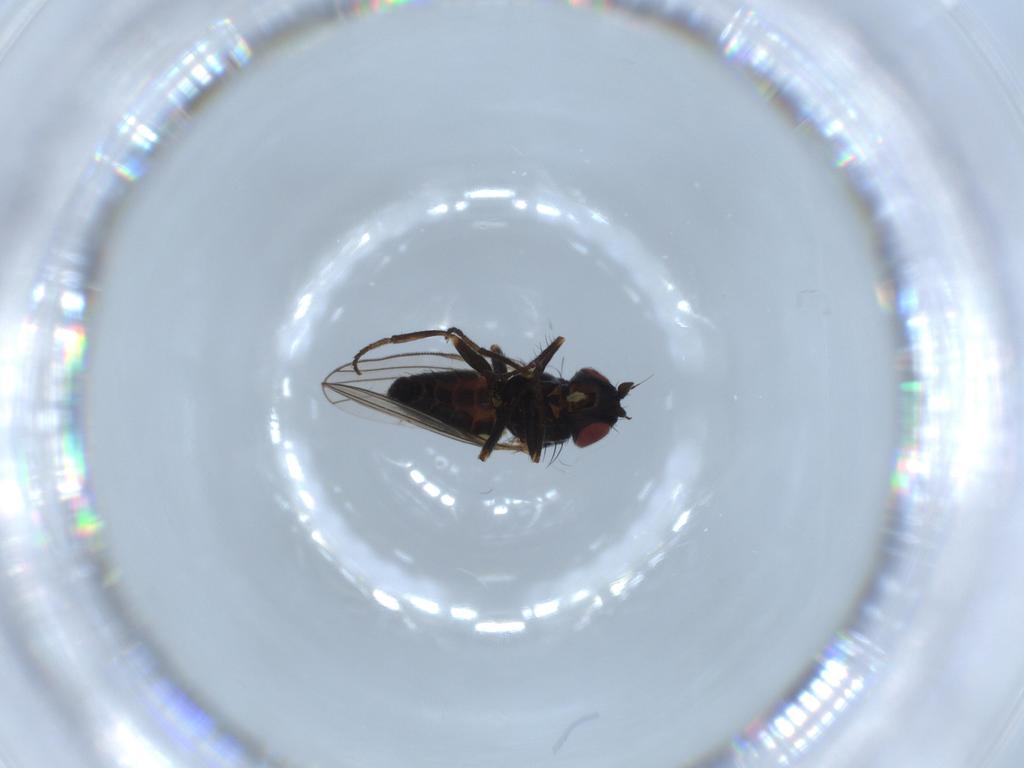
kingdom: Animalia
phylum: Arthropoda
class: Insecta
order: Diptera
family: Chamaemyiidae
